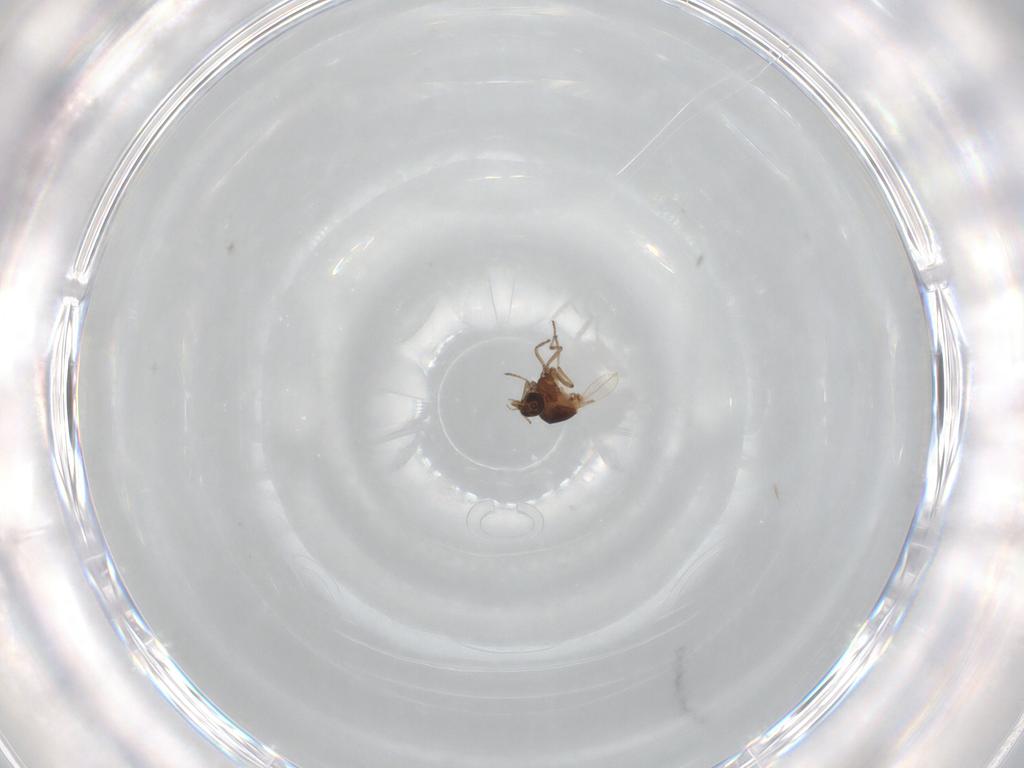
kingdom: Animalia
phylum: Arthropoda
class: Insecta
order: Diptera
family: Ceratopogonidae
